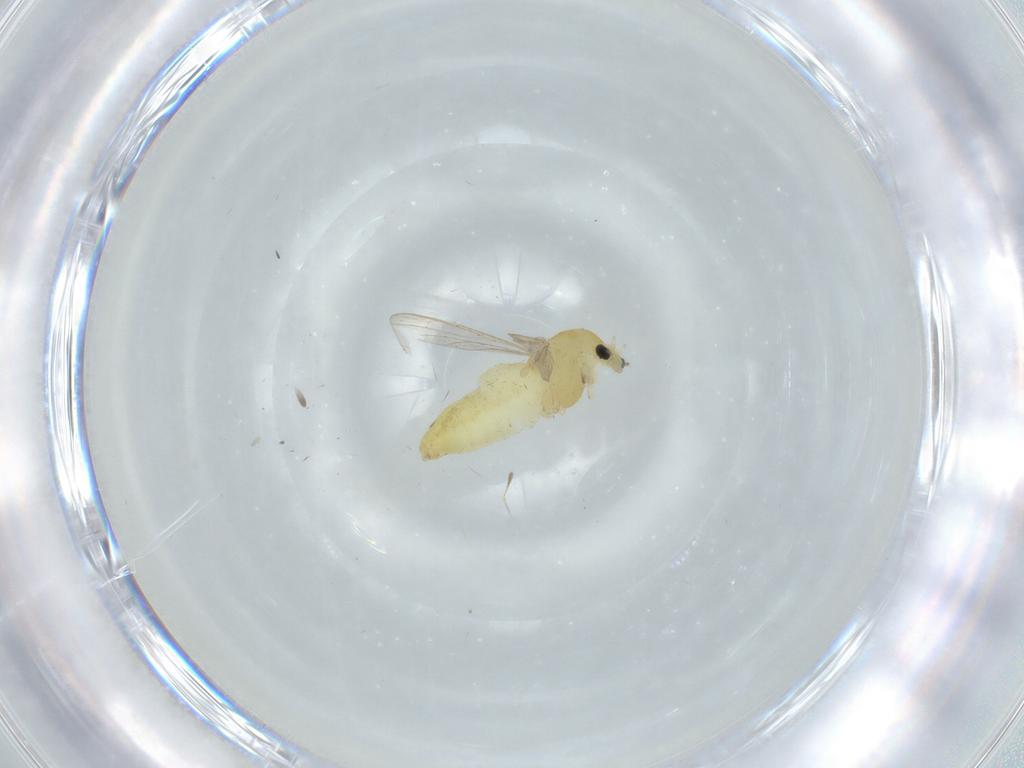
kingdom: Animalia
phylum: Arthropoda
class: Insecta
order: Diptera
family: Chironomidae
